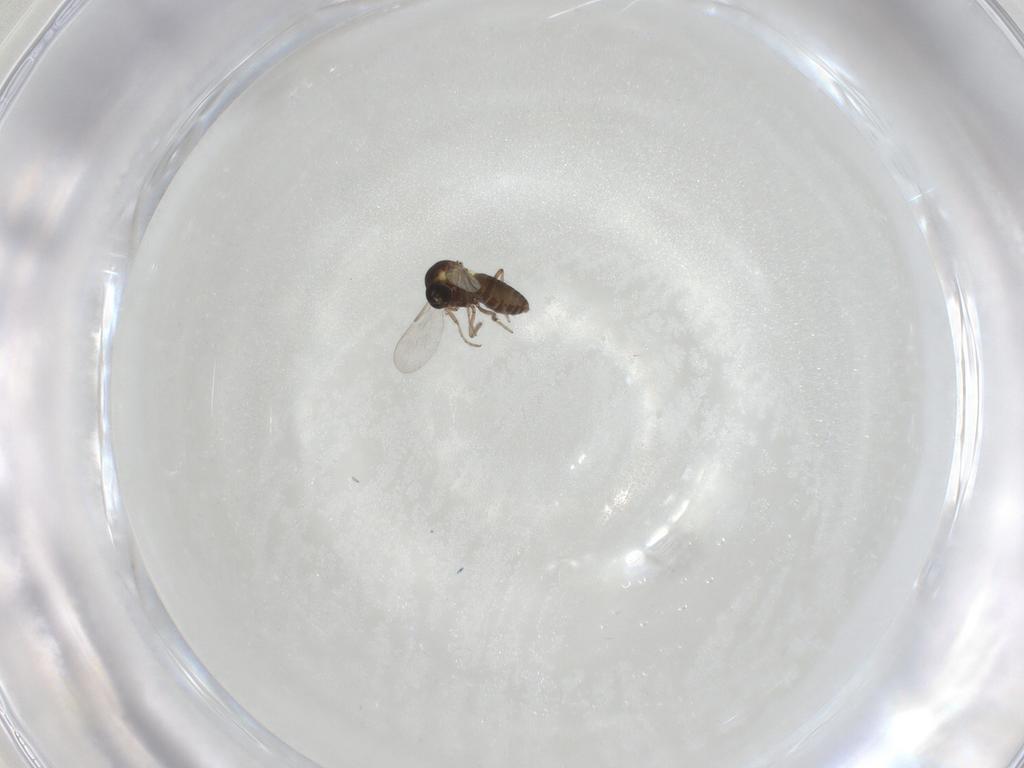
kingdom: Animalia
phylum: Arthropoda
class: Insecta
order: Diptera
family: Ceratopogonidae
